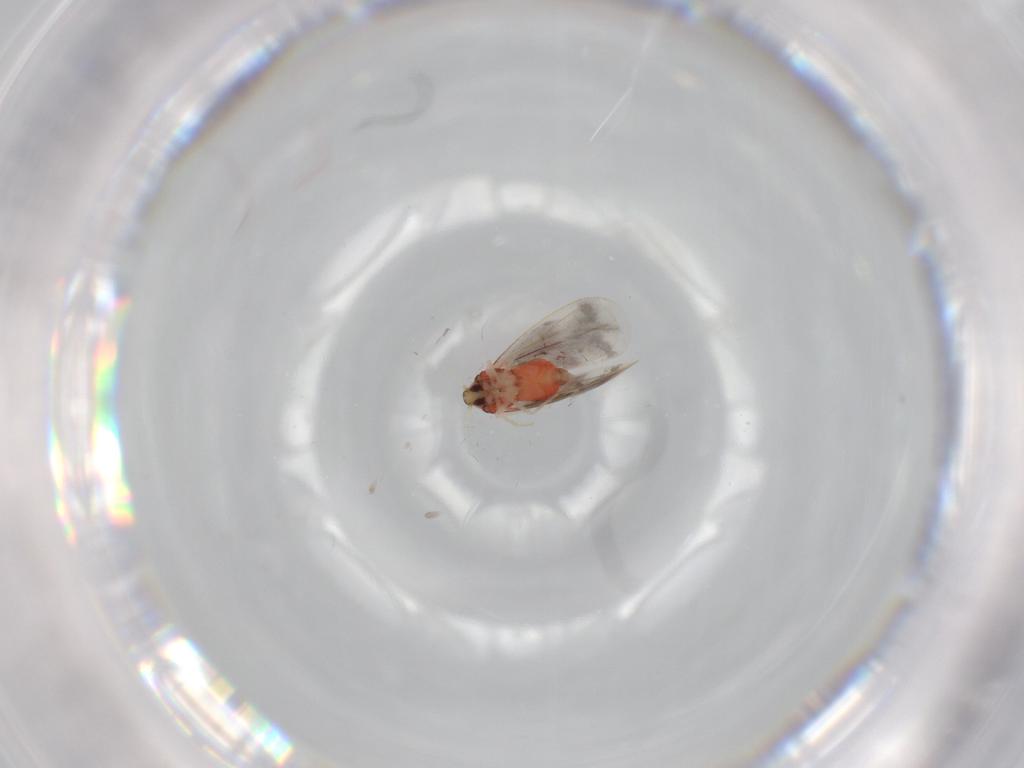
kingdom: Animalia
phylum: Arthropoda
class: Insecta
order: Hemiptera
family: Aleyrodidae
